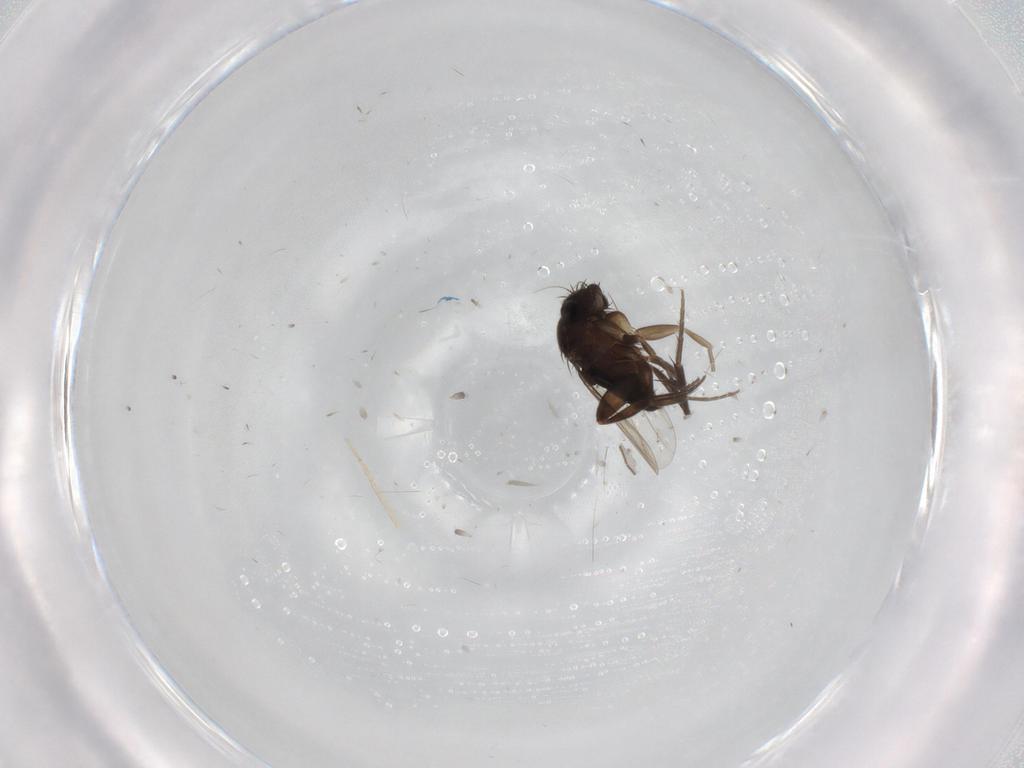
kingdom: Animalia
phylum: Arthropoda
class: Insecta
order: Diptera
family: Phoridae
